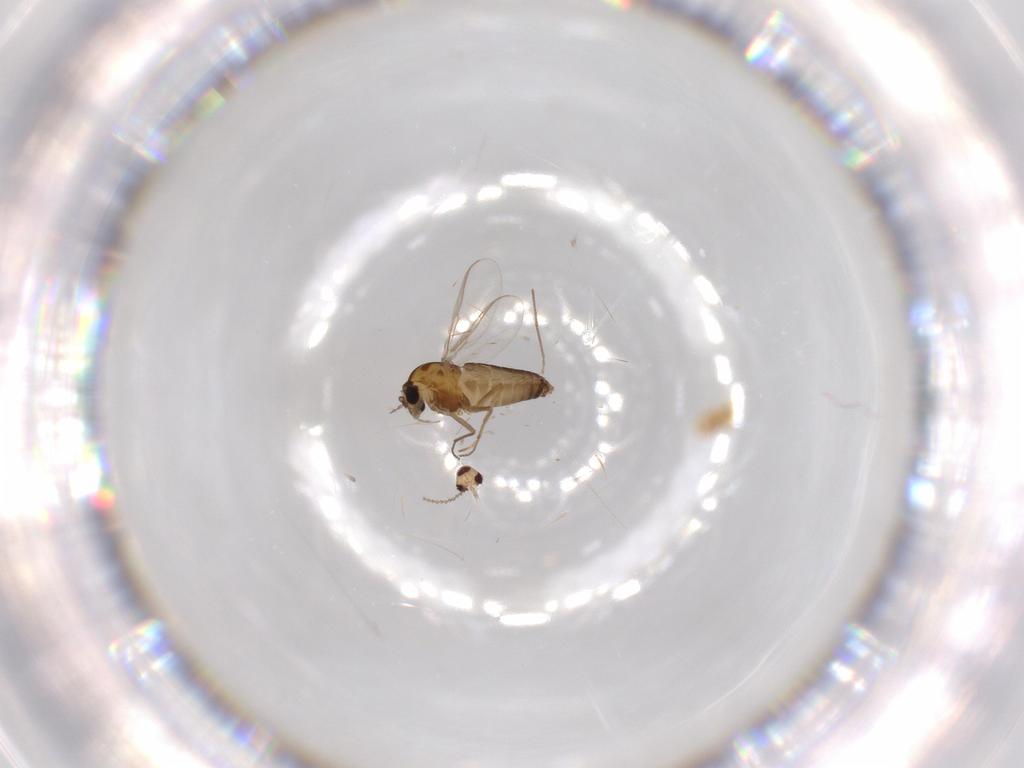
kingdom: Animalia
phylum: Arthropoda
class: Insecta
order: Diptera
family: Chironomidae
